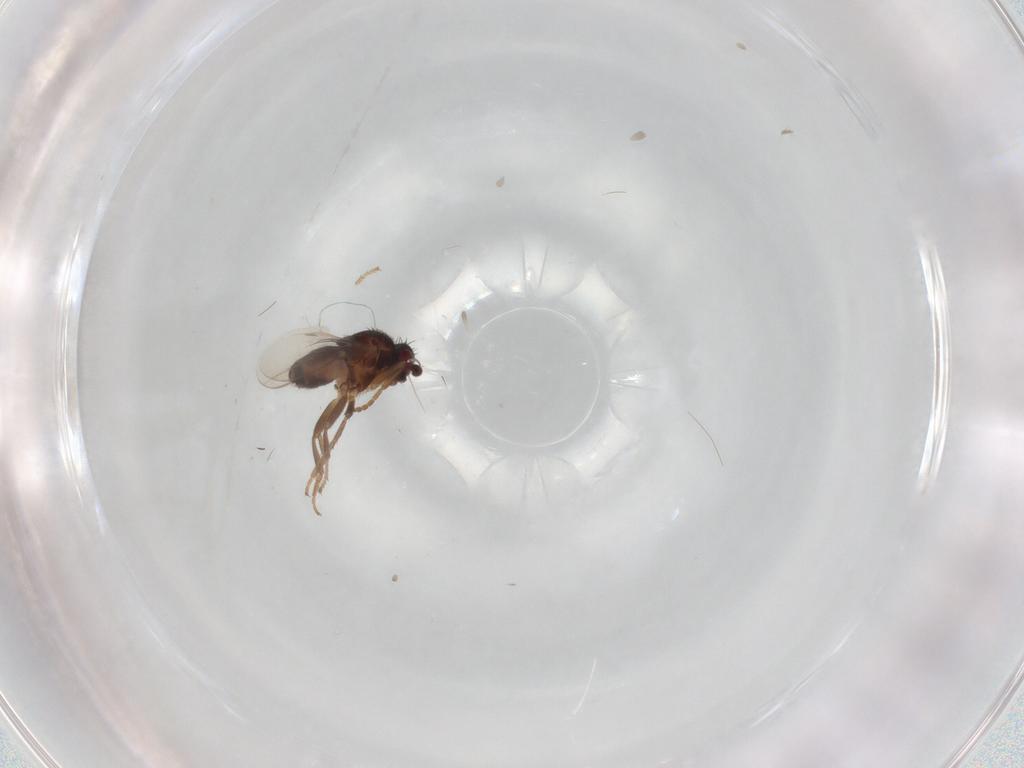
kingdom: Animalia
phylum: Arthropoda
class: Insecta
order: Diptera
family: Sphaeroceridae
